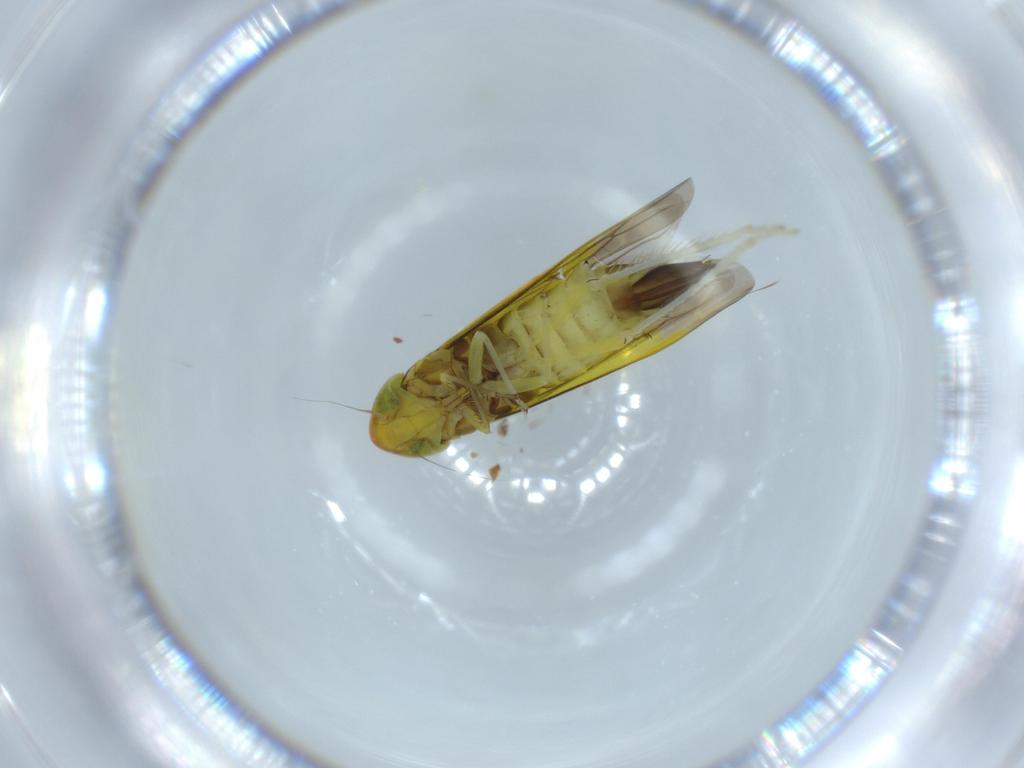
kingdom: Animalia
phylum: Arthropoda
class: Insecta
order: Hemiptera
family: Cicadellidae
